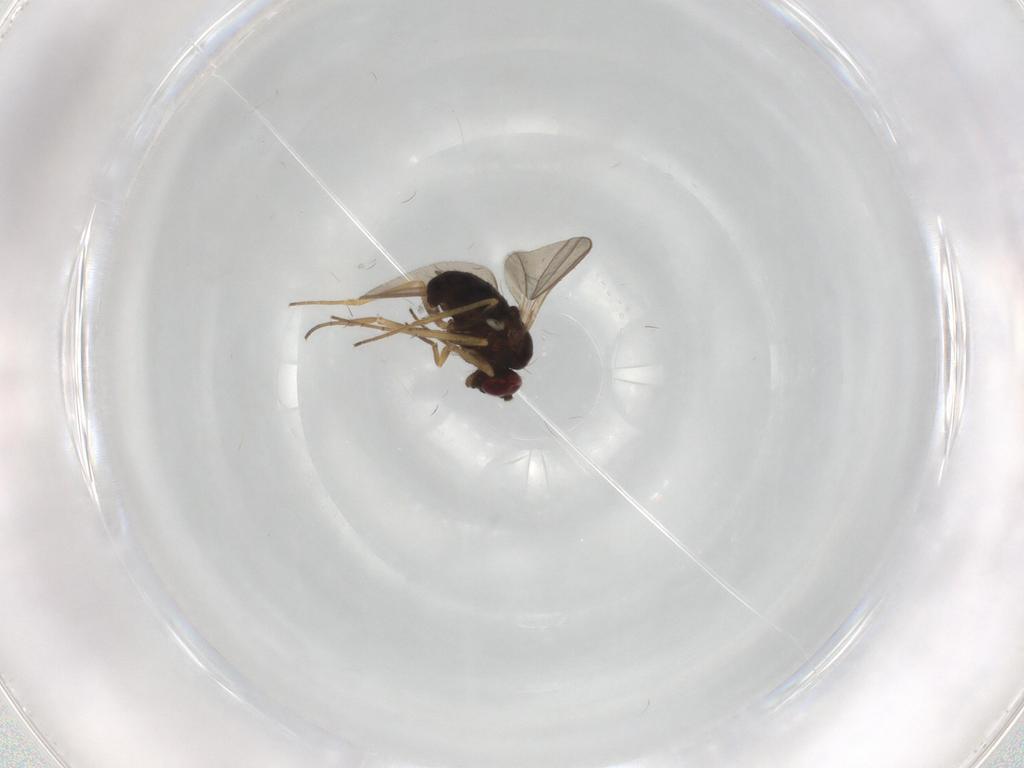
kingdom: Animalia
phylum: Arthropoda
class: Insecta
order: Diptera
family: Dolichopodidae
